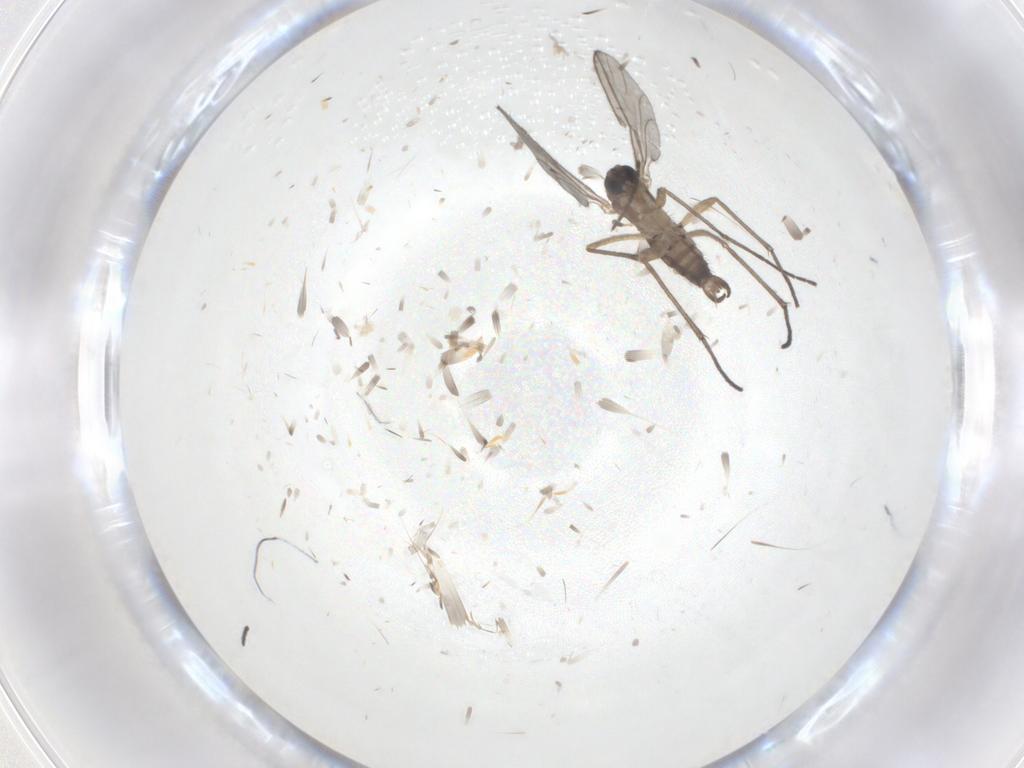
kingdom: Animalia
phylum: Arthropoda
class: Insecta
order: Diptera
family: Sciaridae
